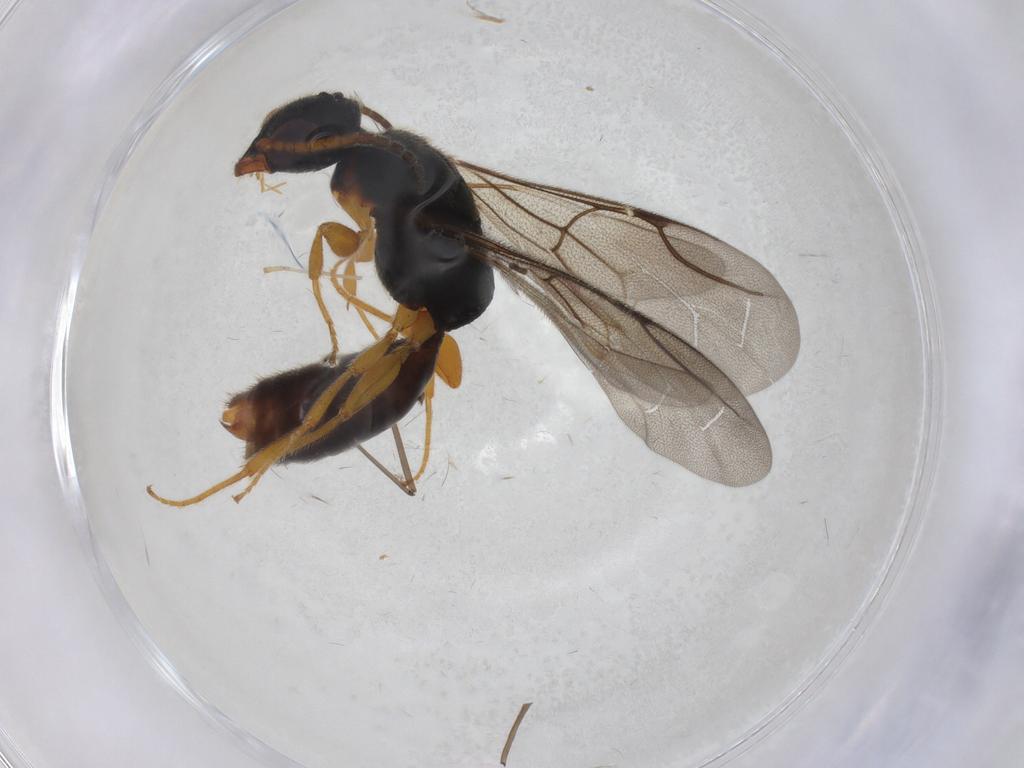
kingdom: Animalia
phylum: Arthropoda
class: Insecta
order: Hymenoptera
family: Bethylidae
